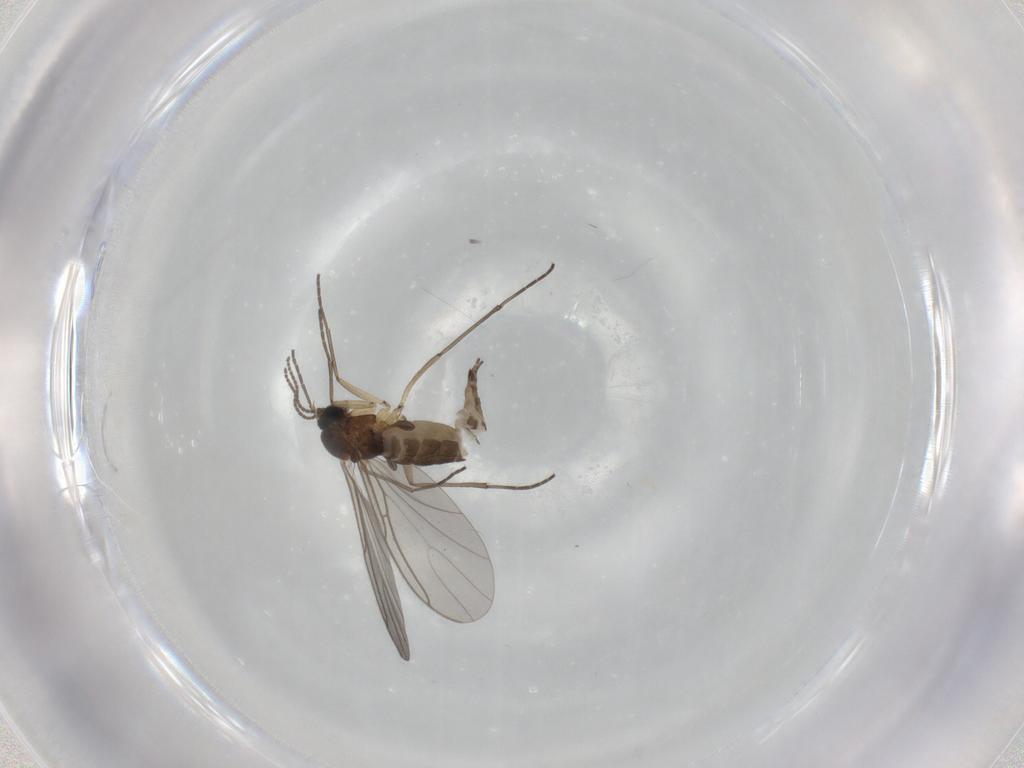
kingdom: Animalia
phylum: Arthropoda
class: Insecta
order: Diptera
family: Sciaridae
